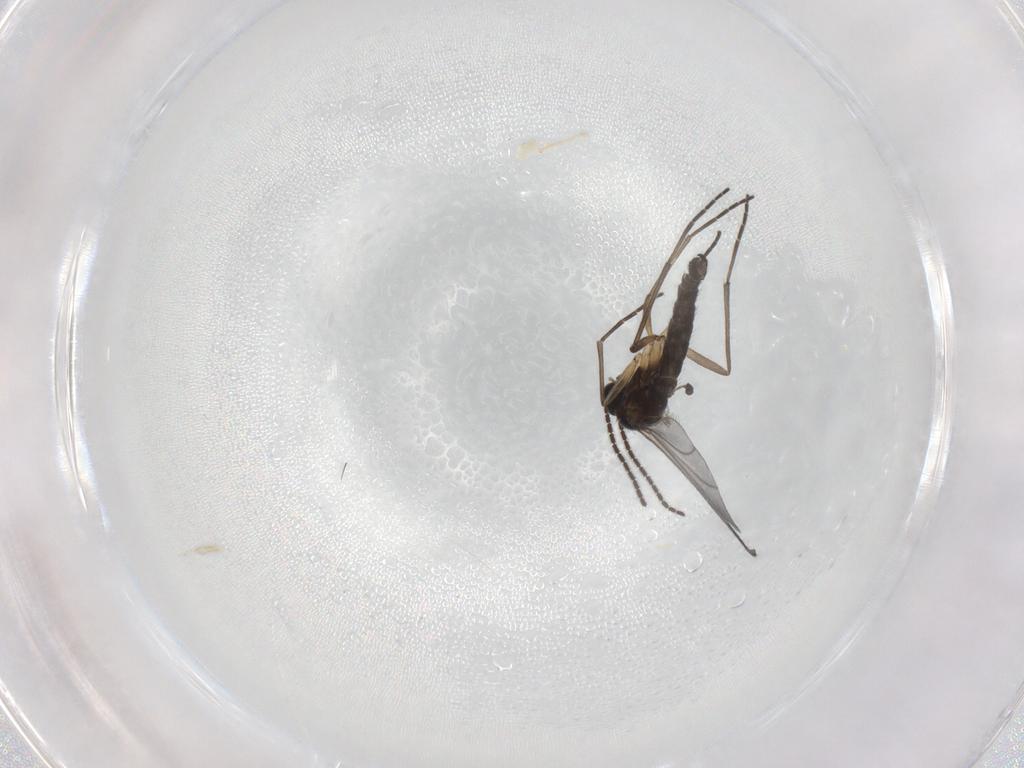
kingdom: Animalia
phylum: Arthropoda
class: Insecta
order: Diptera
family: Sciaridae
